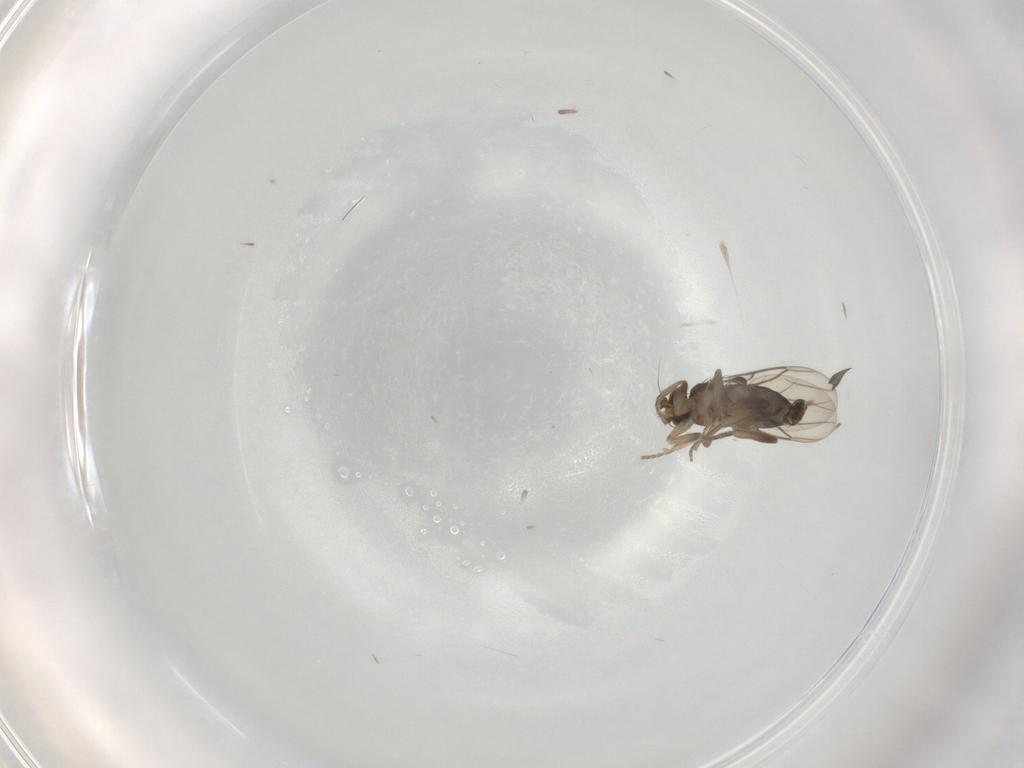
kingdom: Animalia
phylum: Arthropoda
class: Insecta
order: Diptera
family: Phoridae
